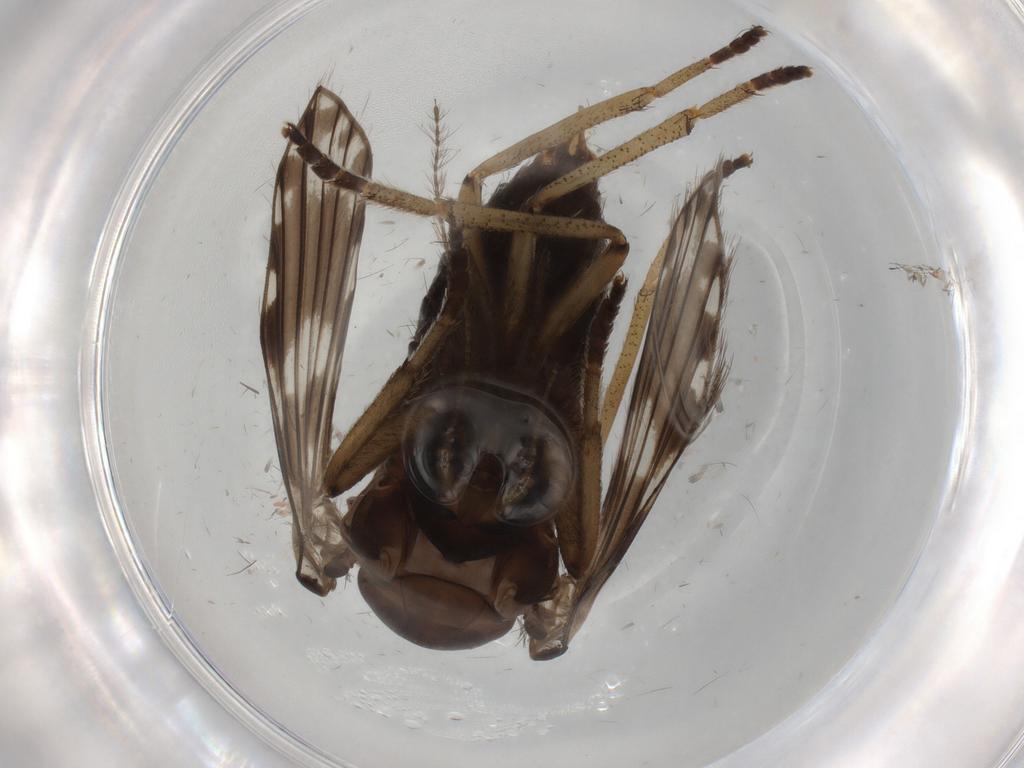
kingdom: Animalia
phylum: Arthropoda
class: Insecta
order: Diptera
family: Psychodidae
